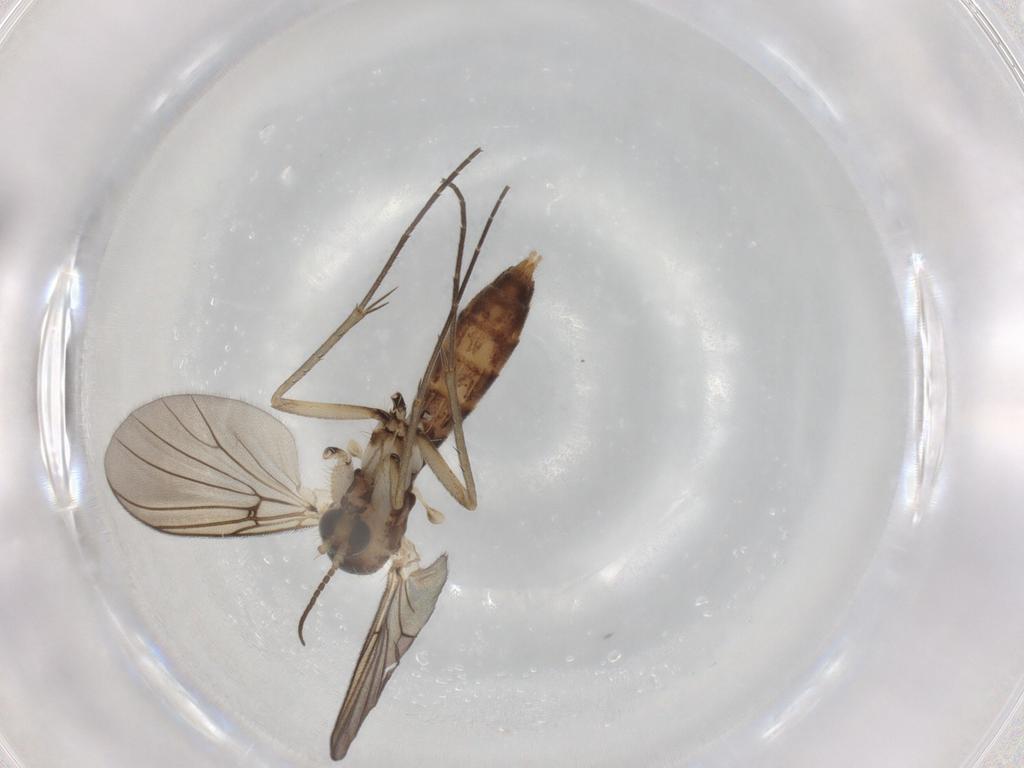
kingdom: Animalia
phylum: Arthropoda
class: Insecta
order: Diptera
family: Mycetophilidae
